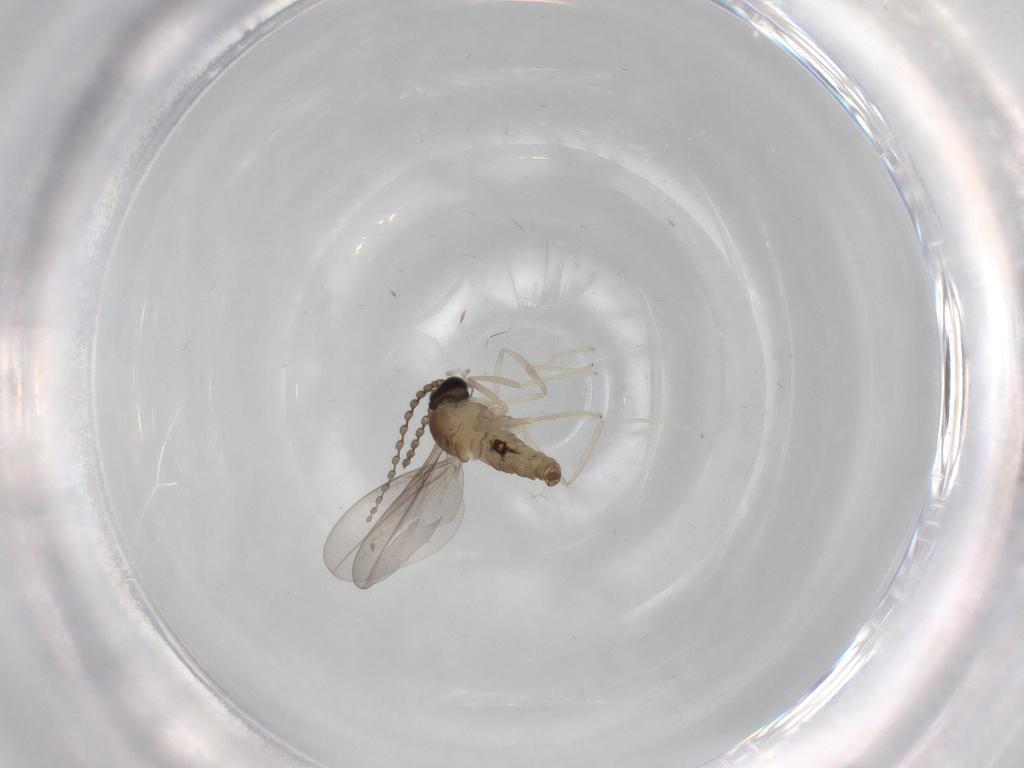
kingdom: Animalia
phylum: Arthropoda
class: Insecta
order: Diptera
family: Cecidomyiidae
